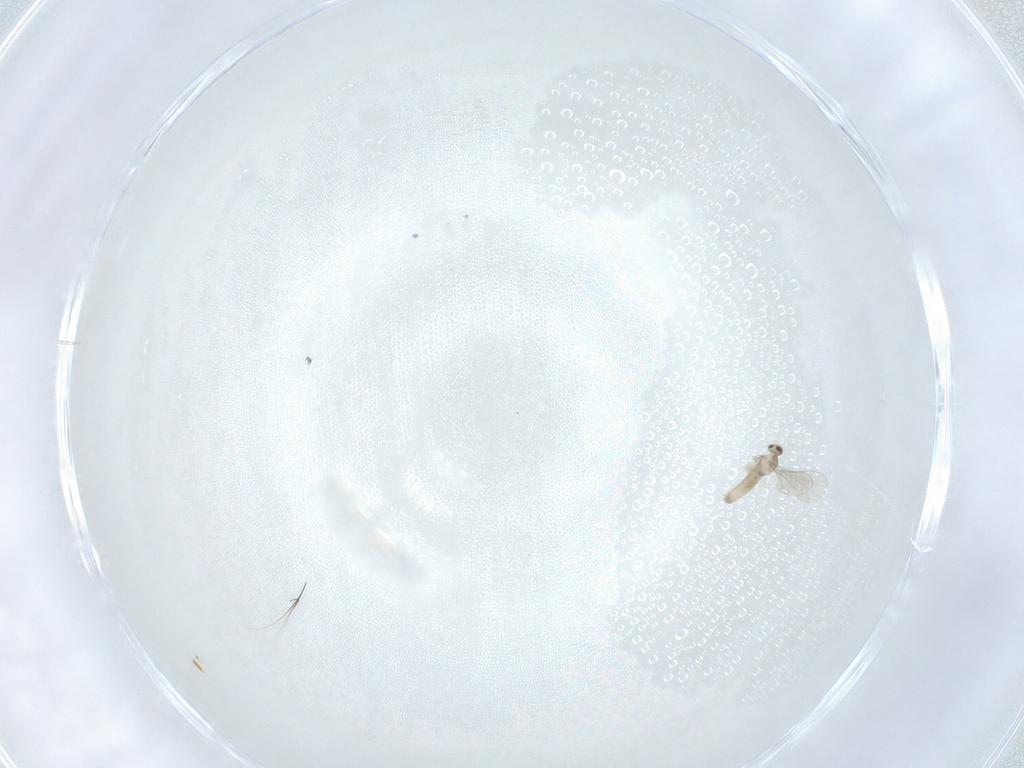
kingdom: Animalia
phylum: Arthropoda
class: Insecta
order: Diptera
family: Cecidomyiidae
